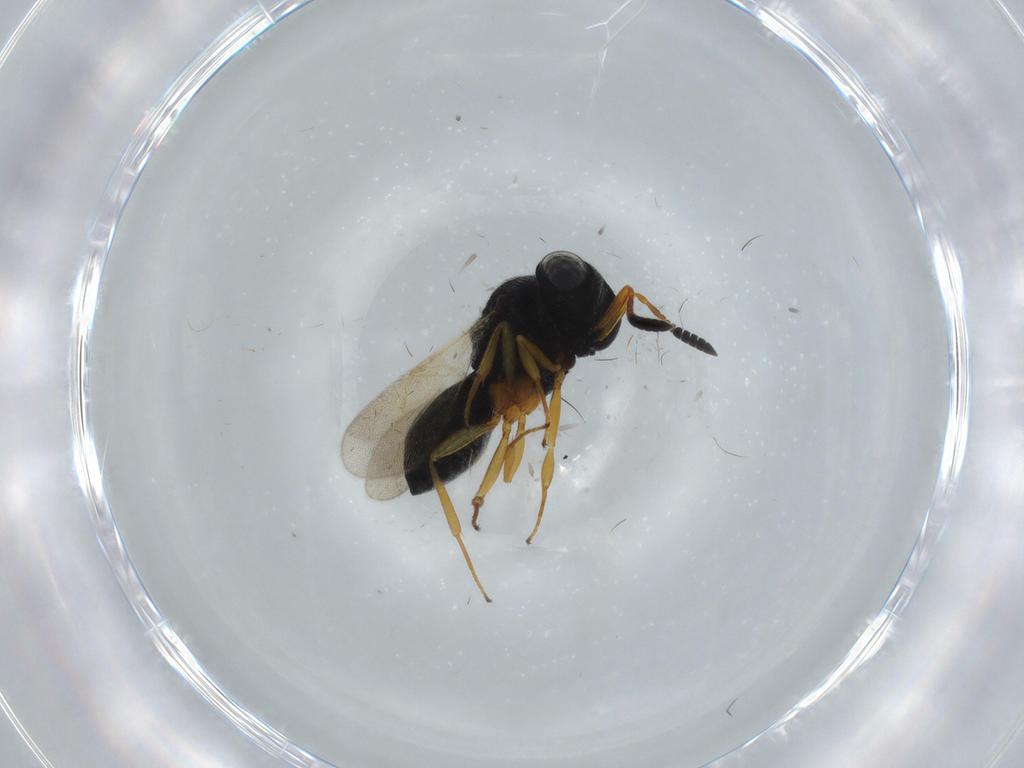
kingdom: Animalia
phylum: Arthropoda
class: Insecta
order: Hymenoptera
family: Scelionidae
